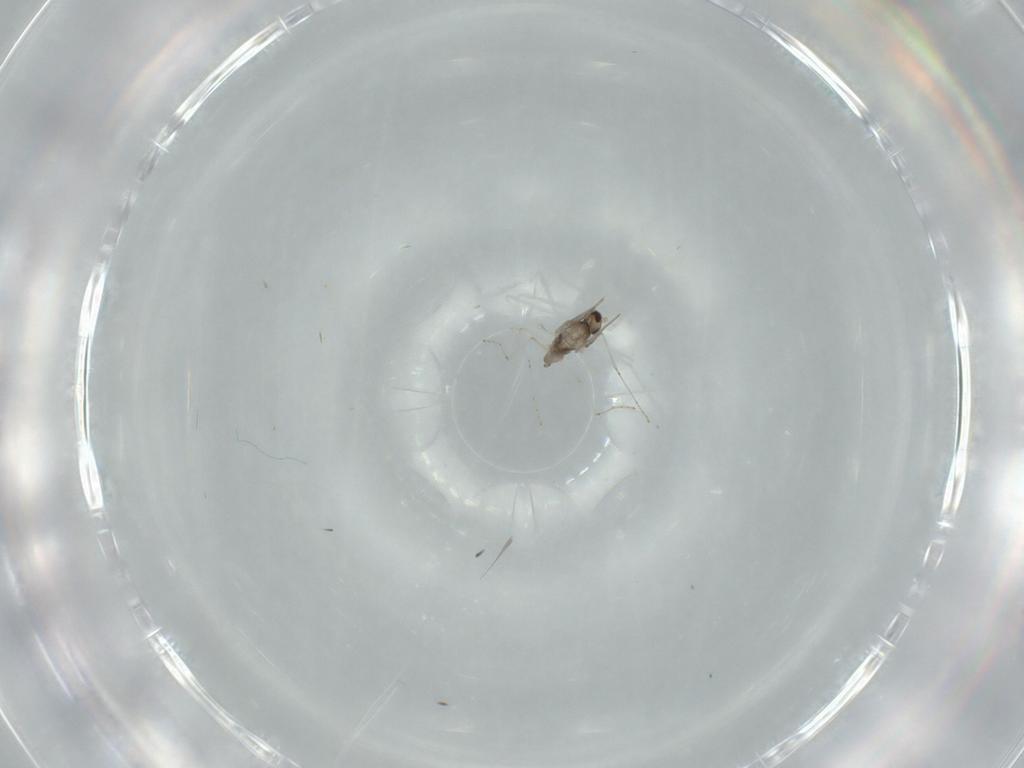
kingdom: Animalia
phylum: Arthropoda
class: Insecta
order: Diptera
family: Cecidomyiidae
